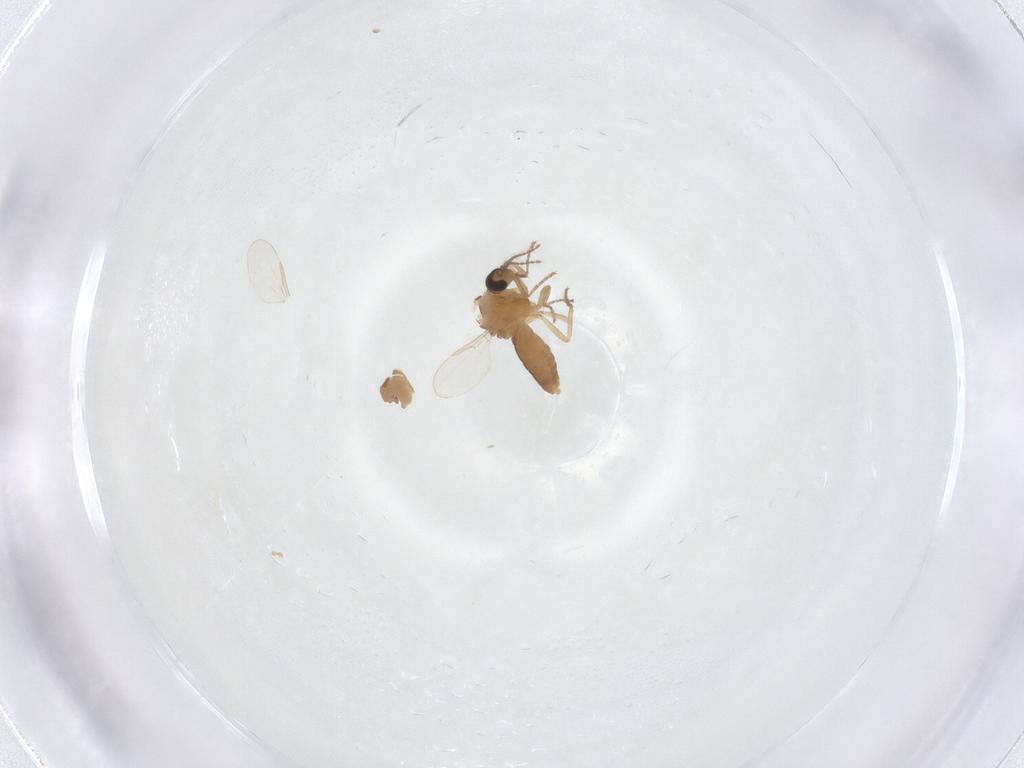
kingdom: Animalia
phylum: Arthropoda
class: Insecta
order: Diptera
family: Ceratopogonidae
